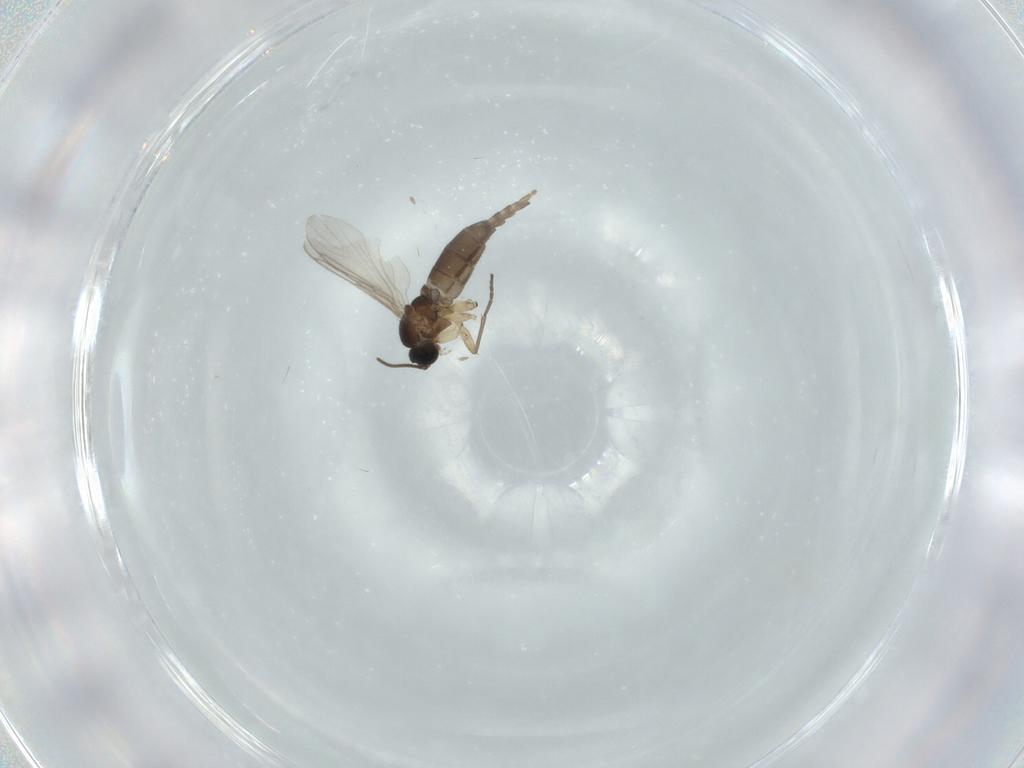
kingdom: Animalia
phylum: Arthropoda
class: Insecta
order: Diptera
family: Sciaridae
